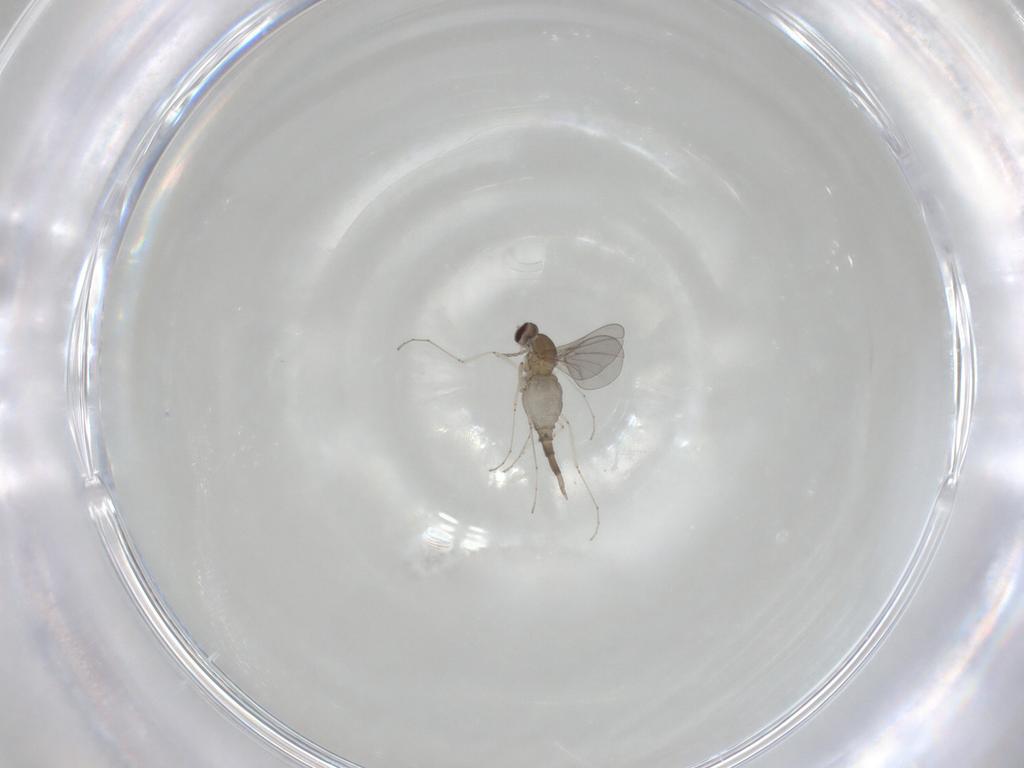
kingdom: Animalia
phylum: Arthropoda
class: Insecta
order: Diptera
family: Cecidomyiidae
